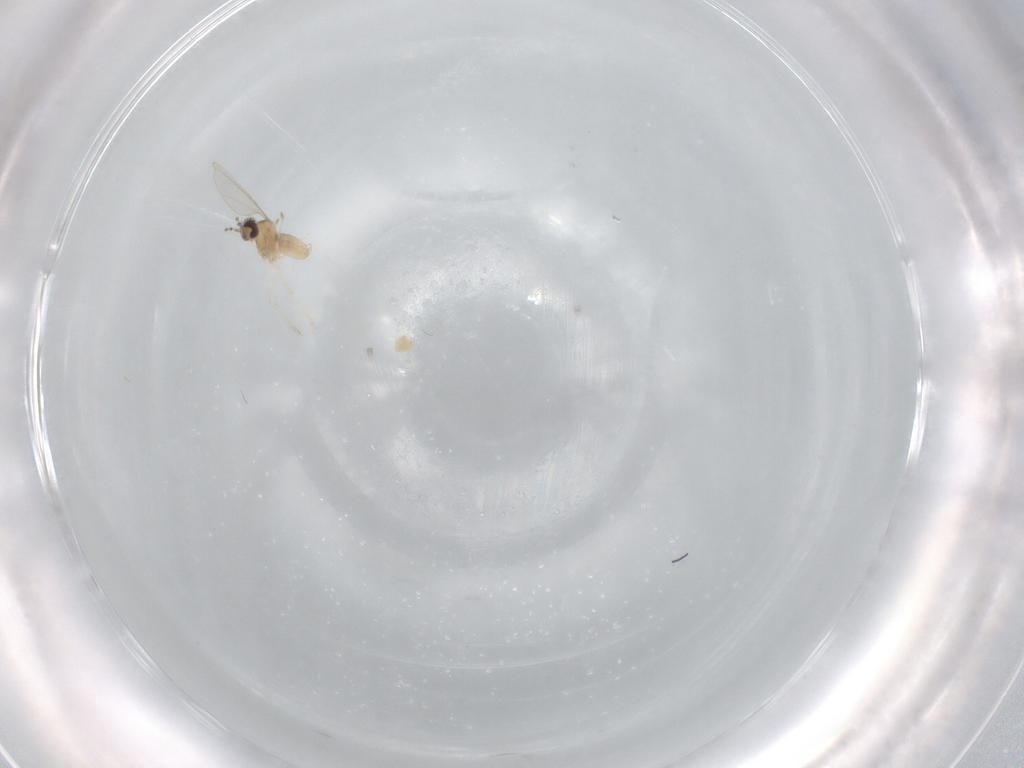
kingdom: Animalia
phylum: Arthropoda
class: Insecta
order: Diptera
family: Cecidomyiidae
